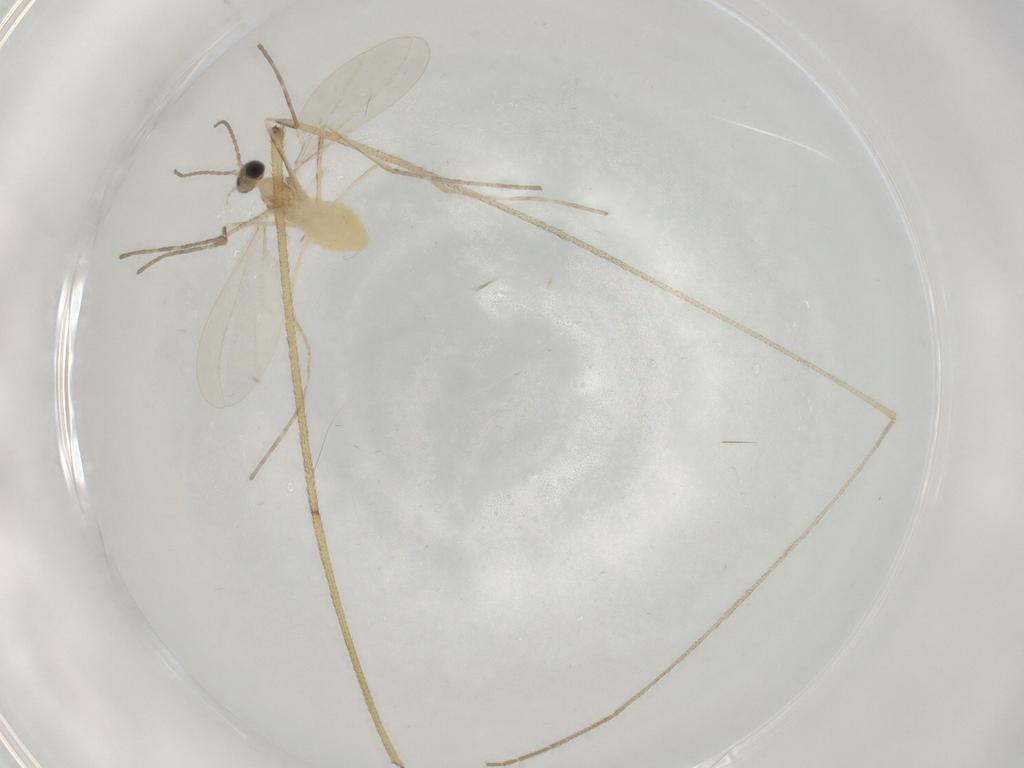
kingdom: Animalia
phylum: Arthropoda
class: Insecta
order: Diptera
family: Cecidomyiidae
